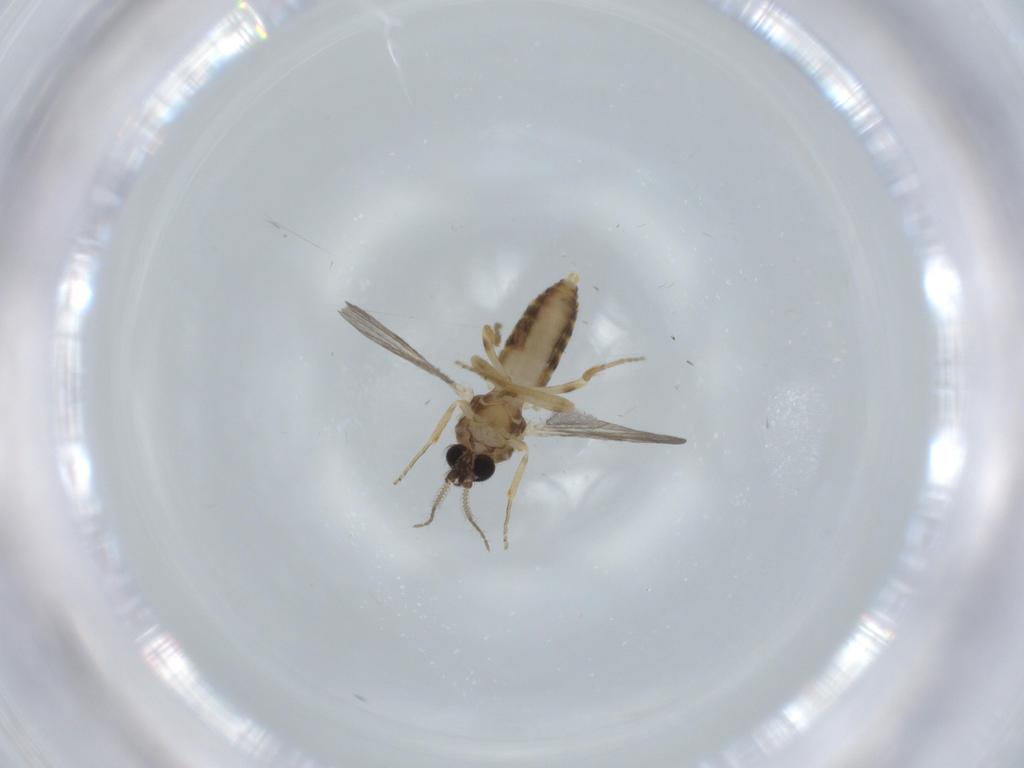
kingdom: Animalia
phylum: Arthropoda
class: Insecta
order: Diptera
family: Ceratopogonidae
